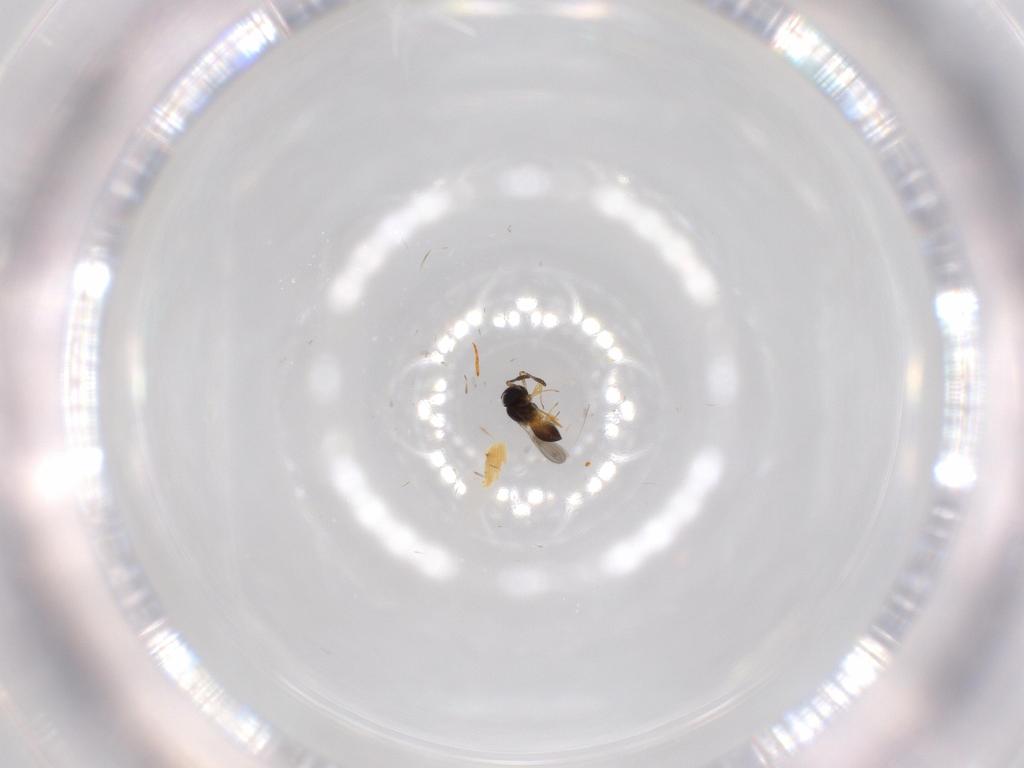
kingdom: Animalia
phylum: Arthropoda
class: Insecta
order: Hymenoptera
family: Scelionidae
